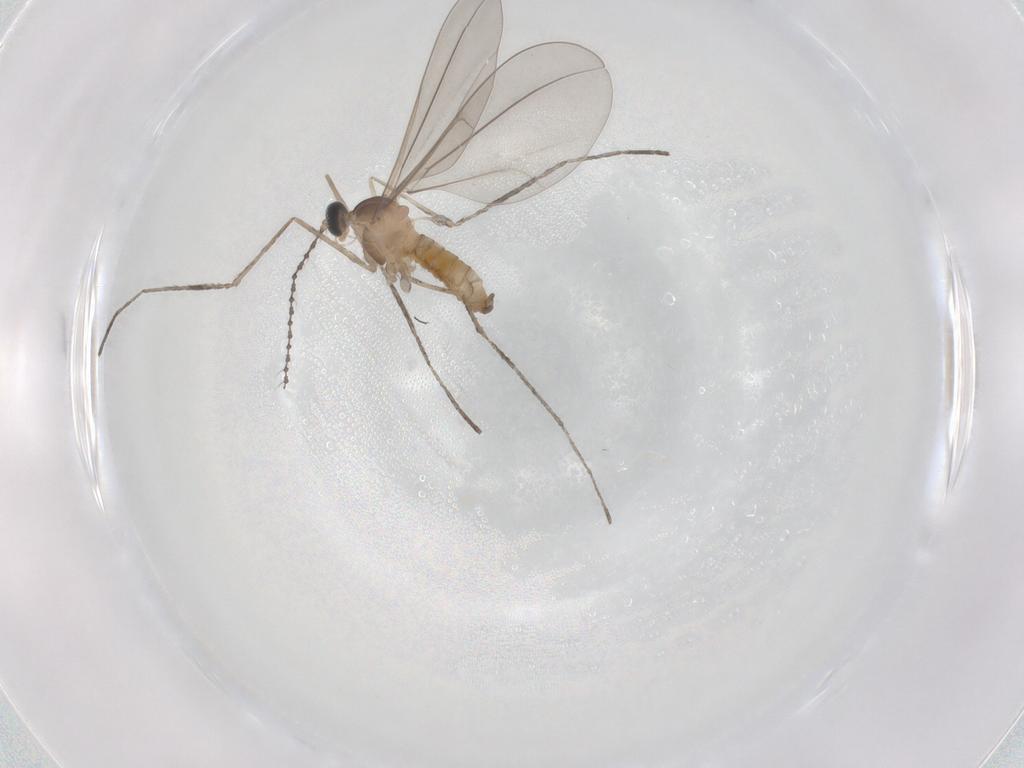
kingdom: Animalia
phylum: Arthropoda
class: Insecta
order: Diptera
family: Cecidomyiidae
